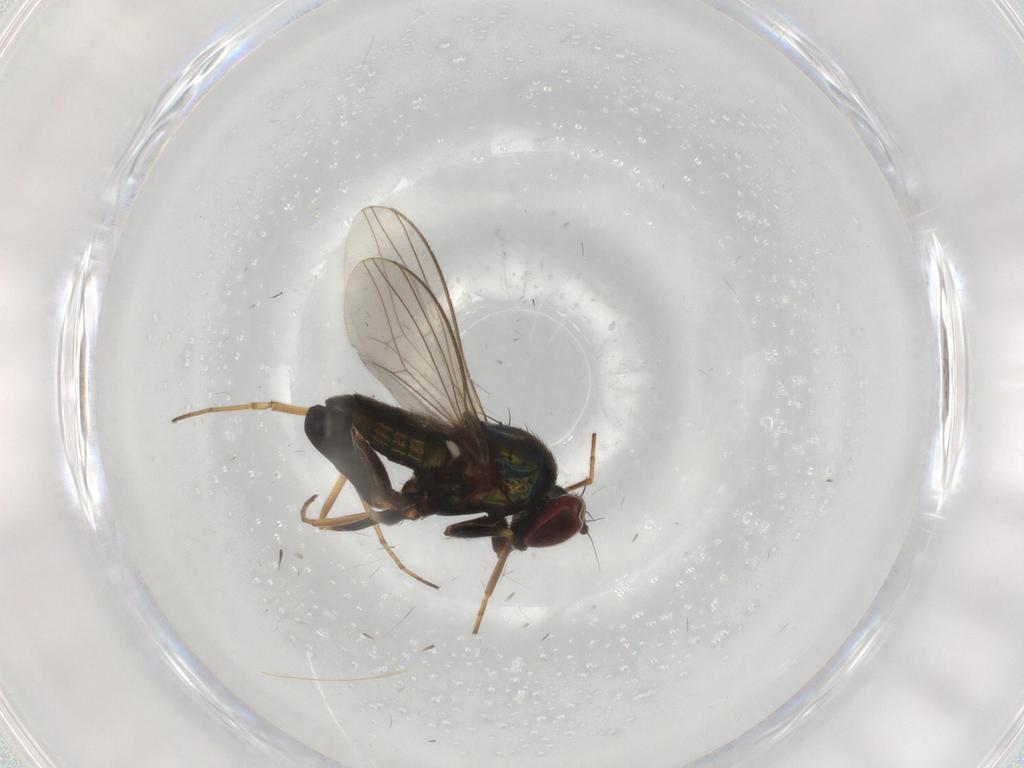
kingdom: Animalia
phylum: Arthropoda
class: Insecta
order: Diptera
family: Dolichopodidae
